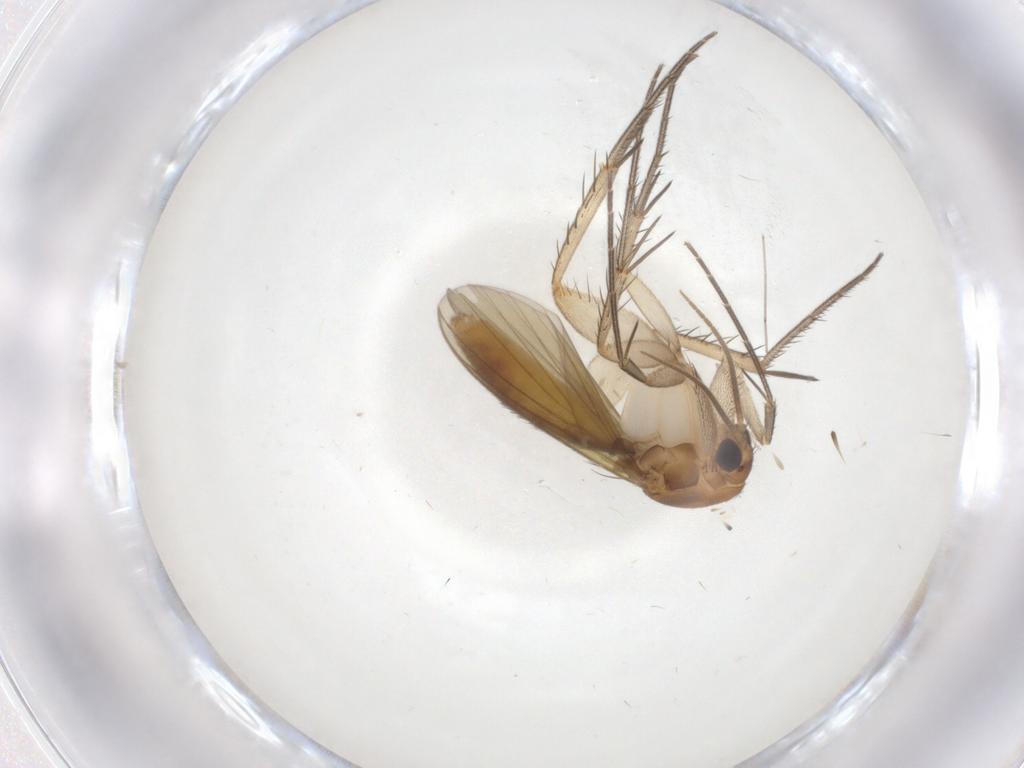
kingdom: Animalia
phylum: Arthropoda
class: Insecta
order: Diptera
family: Mycetophilidae
